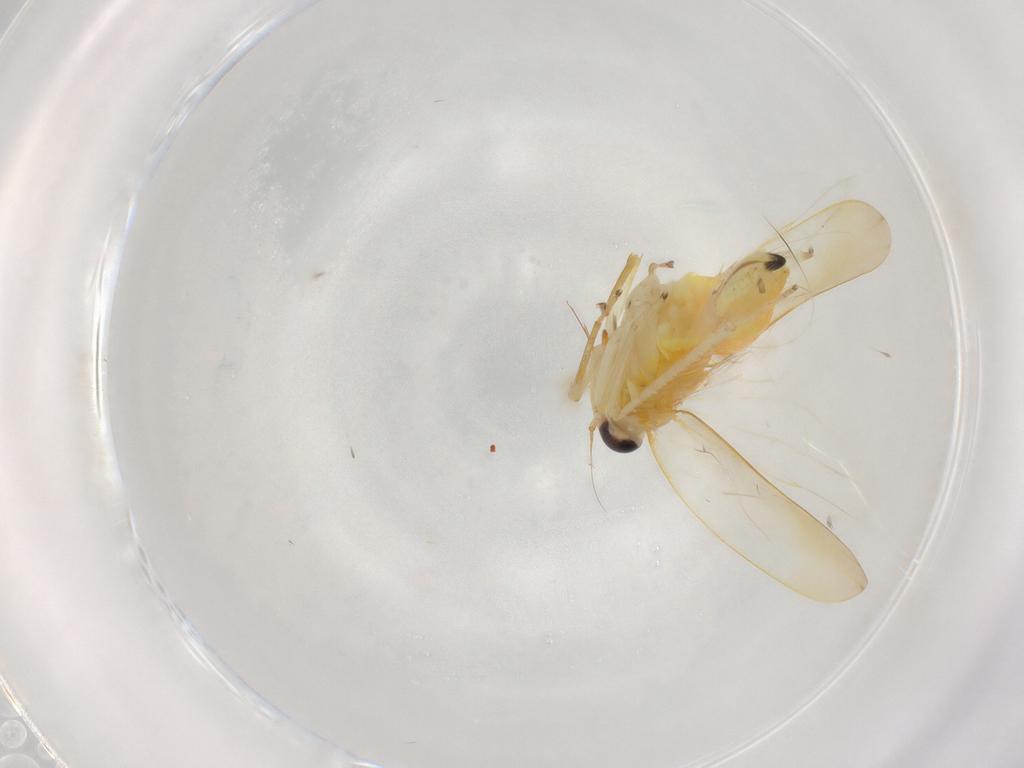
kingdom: Animalia
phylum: Arthropoda
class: Insecta
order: Hemiptera
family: Cicadellidae
